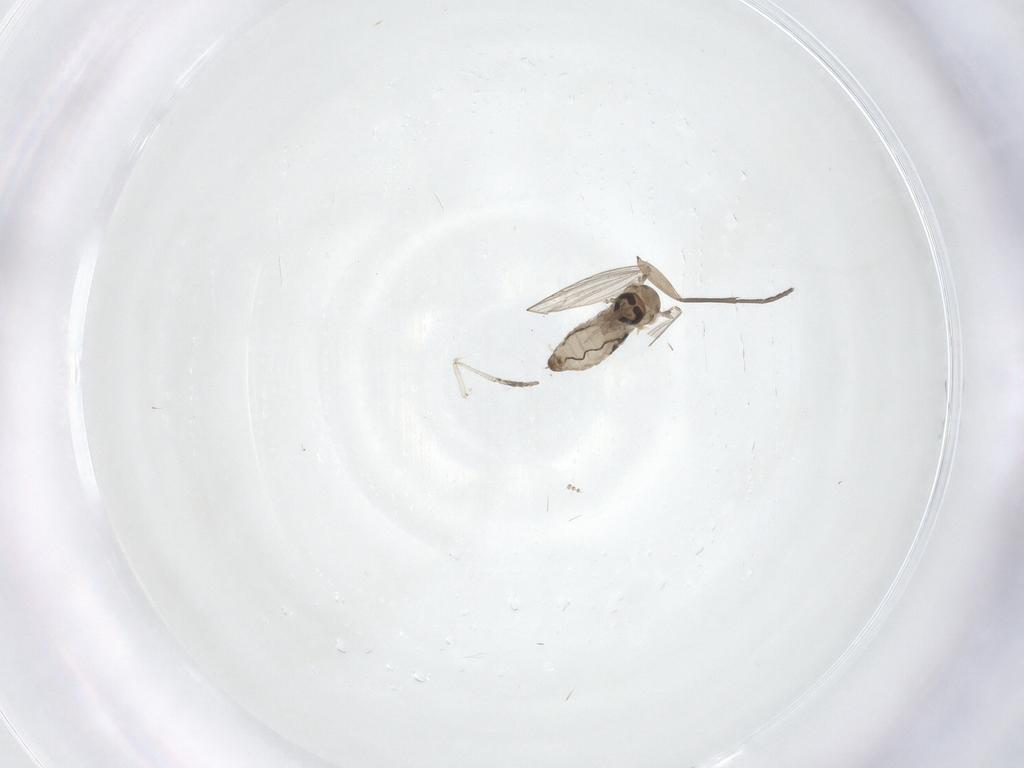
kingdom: Animalia
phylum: Arthropoda
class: Insecta
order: Diptera
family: Psychodidae
